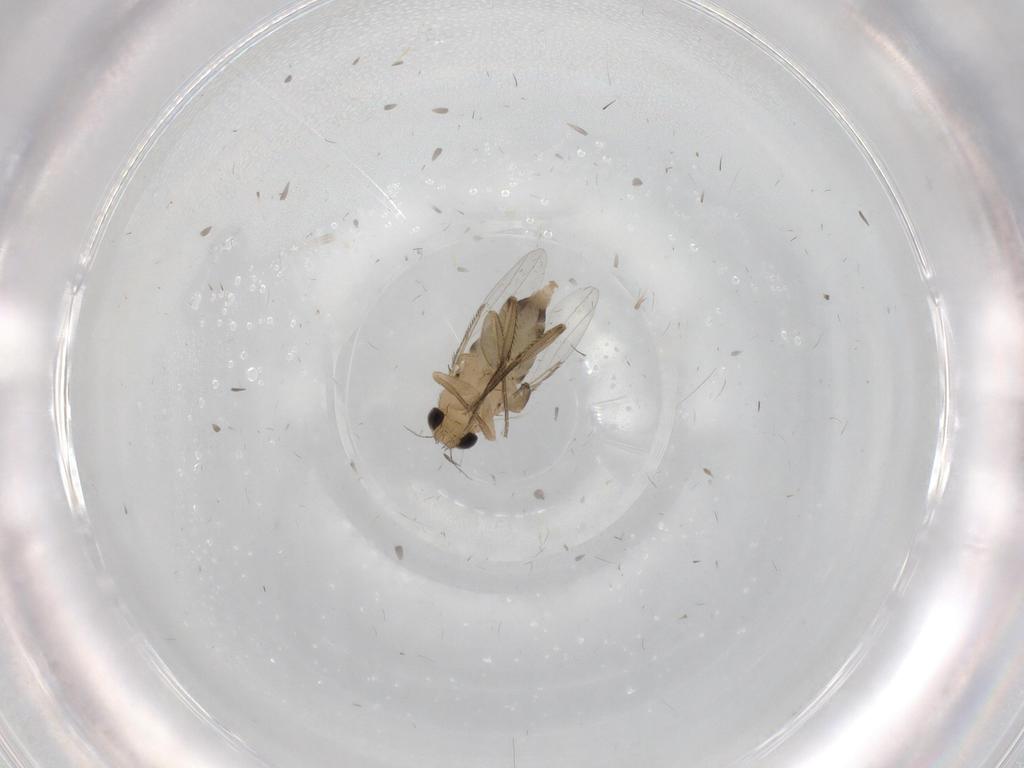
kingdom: Animalia
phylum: Arthropoda
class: Insecta
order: Diptera
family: Phoridae
